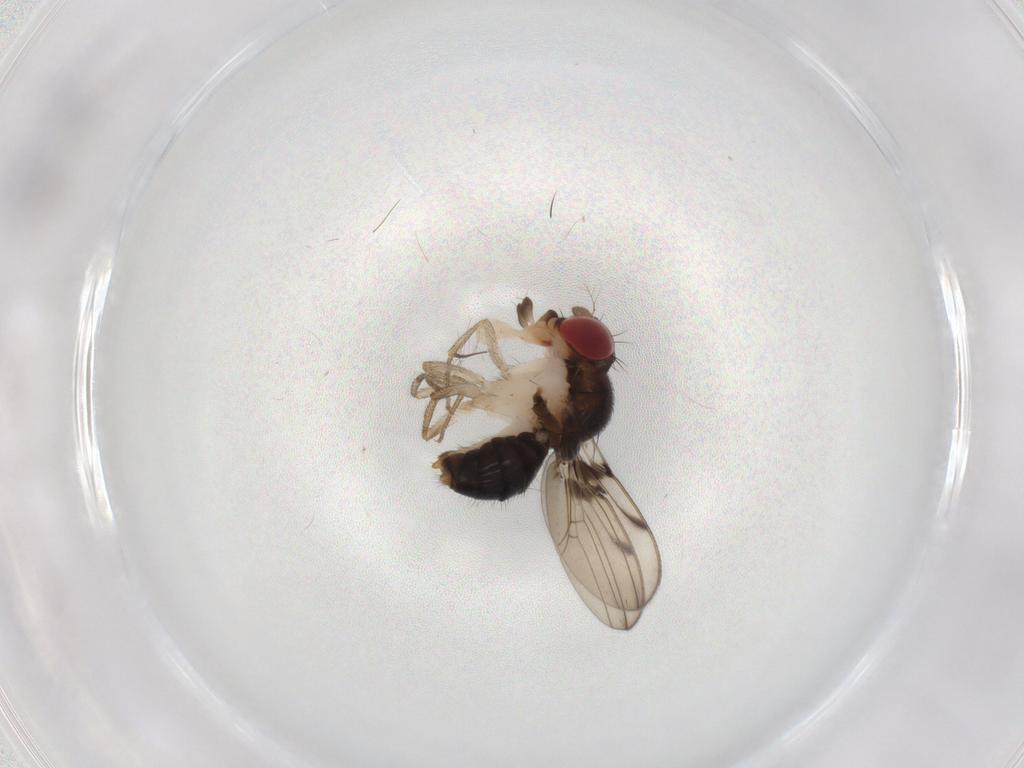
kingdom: Animalia
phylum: Arthropoda
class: Insecta
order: Diptera
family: Drosophilidae
